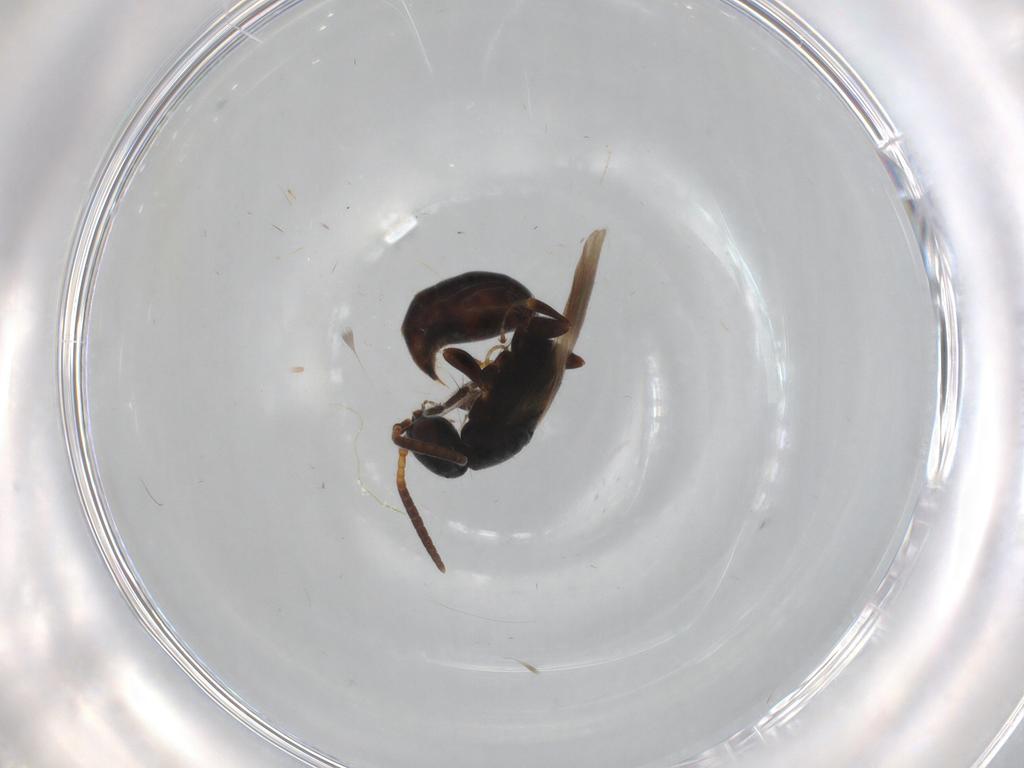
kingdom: Animalia
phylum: Arthropoda
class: Insecta
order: Hymenoptera
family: Bethylidae
